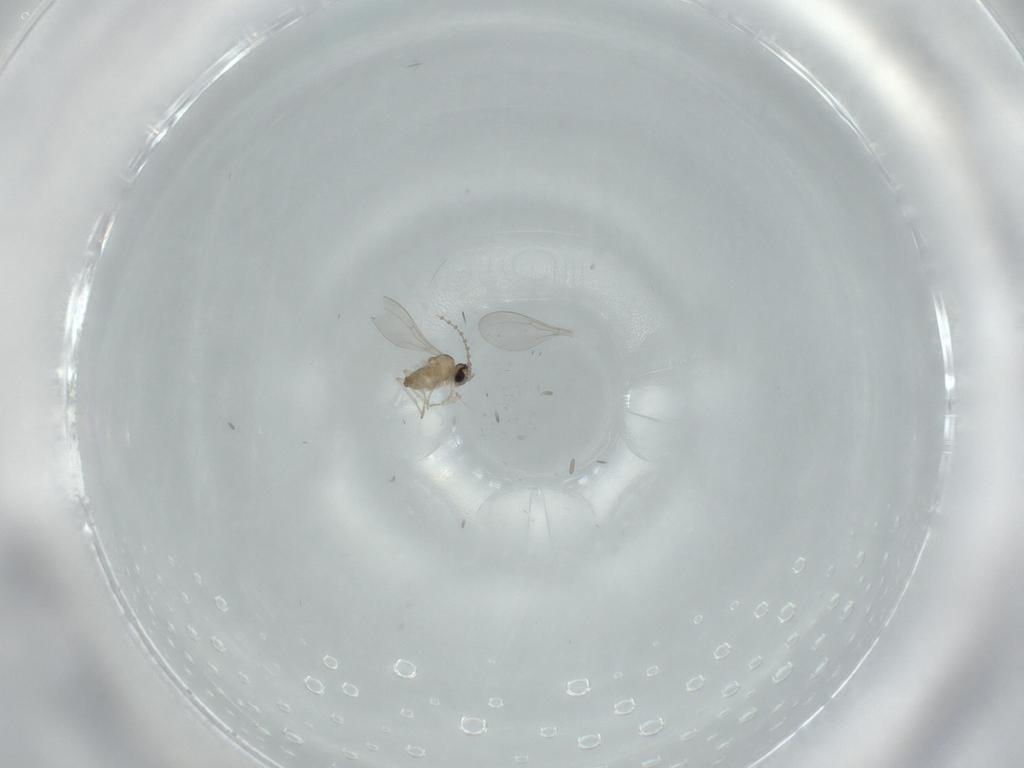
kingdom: Animalia
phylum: Arthropoda
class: Insecta
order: Diptera
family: Cecidomyiidae
